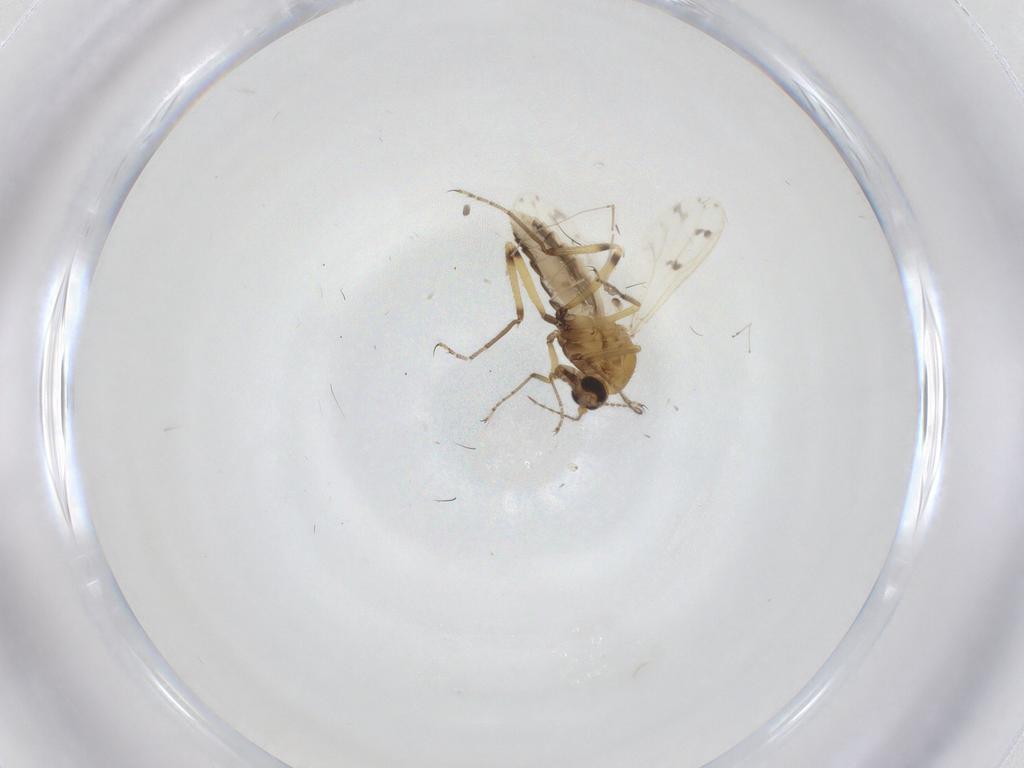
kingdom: Animalia
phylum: Arthropoda
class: Insecta
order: Diptera
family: Ceratopogonidae
